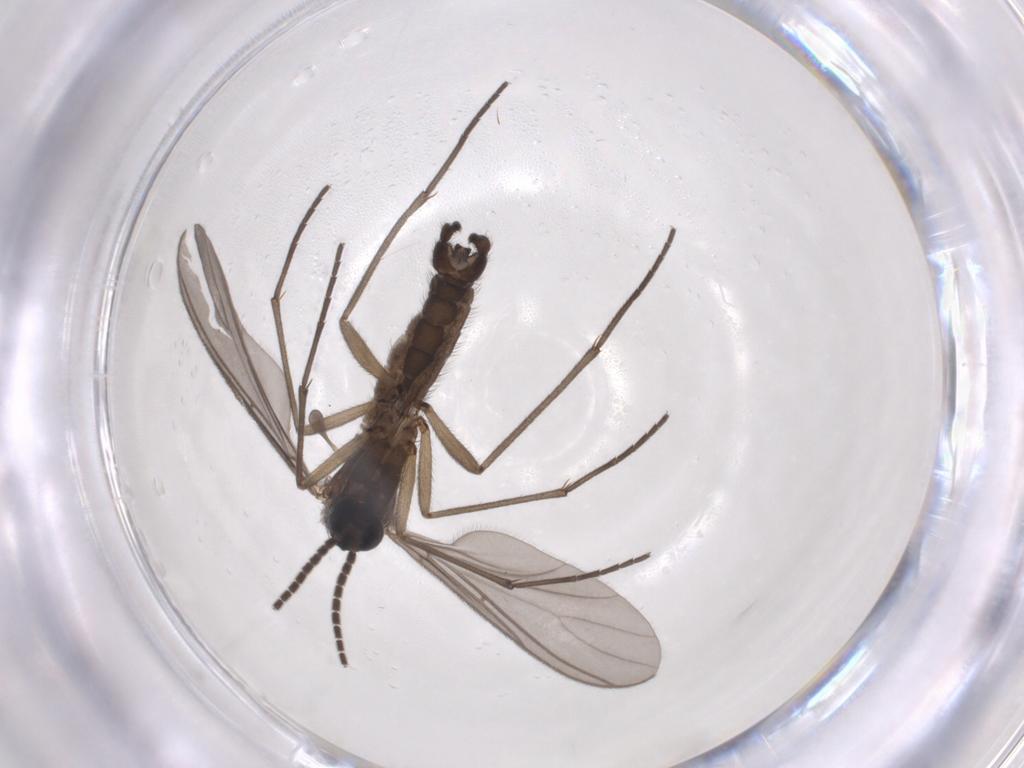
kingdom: Animalia
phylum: Arthropoda
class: Insecta
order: Diptera
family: Sciaridae
